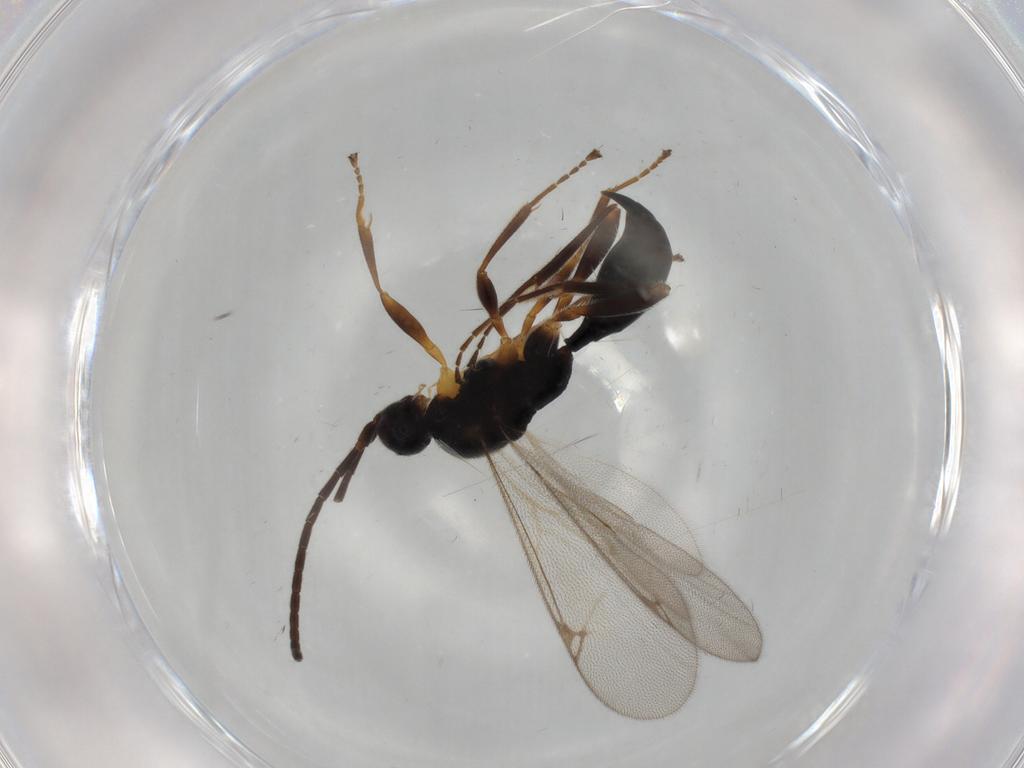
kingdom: Animalia
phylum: Arthropoda
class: Insecta
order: Hymenoptera
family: Proctotrupidae
